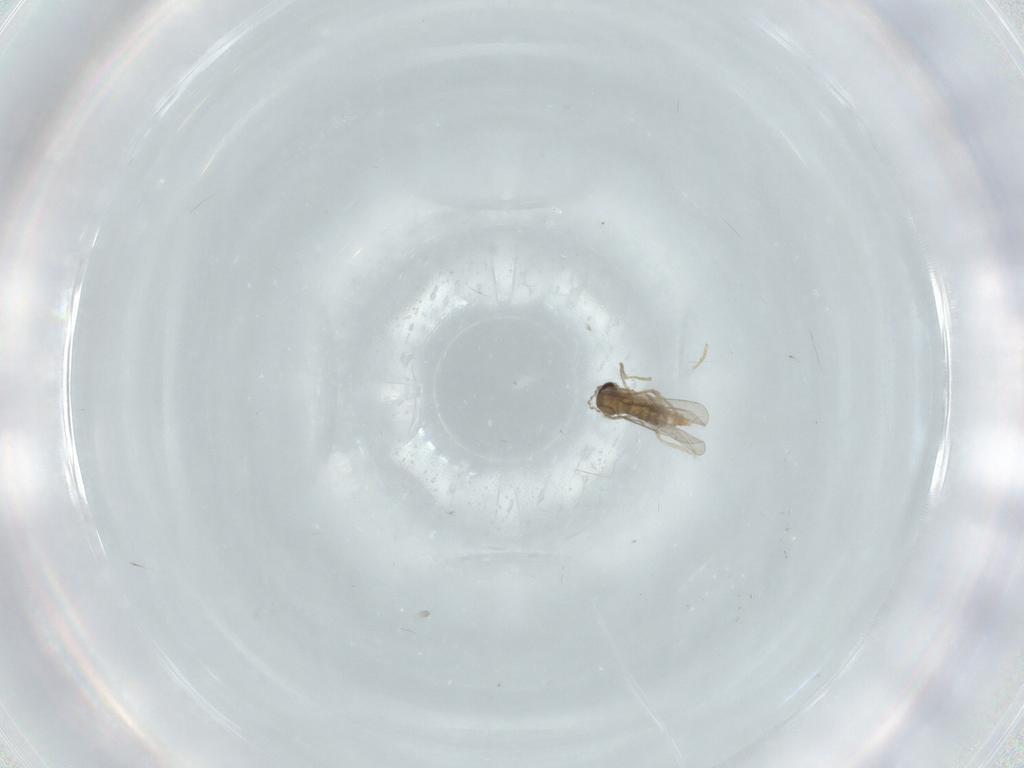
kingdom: Animalia
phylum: Arthropoda
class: Insecta
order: Diptera
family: Cecidomyiidae
